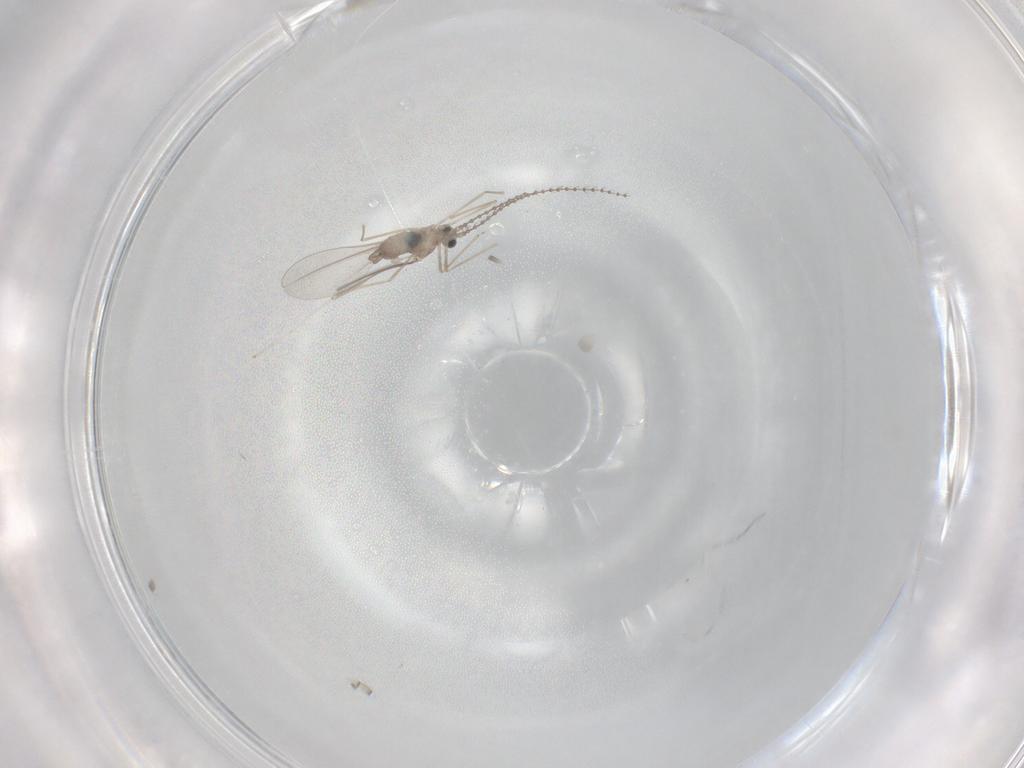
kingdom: Animalia
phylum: Arthropoda
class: Insecta
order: Diptera
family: Cecidomyiidae
